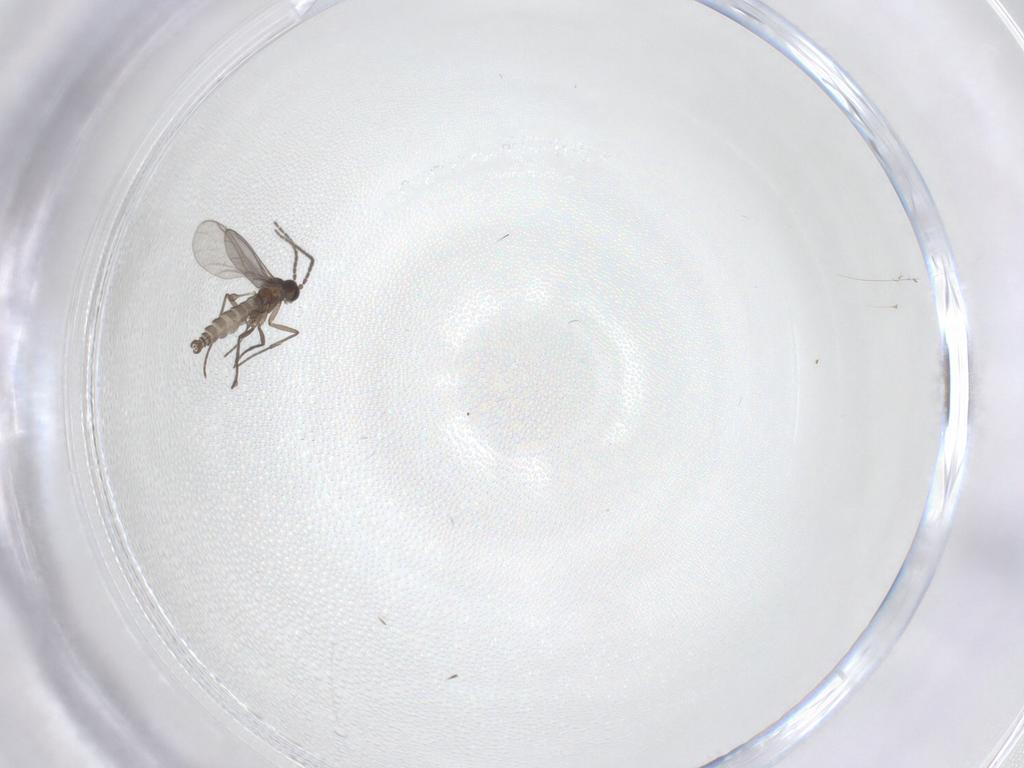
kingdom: Animalia
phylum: Arthropoda
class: Insecta
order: Diptera
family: Sciaridae
